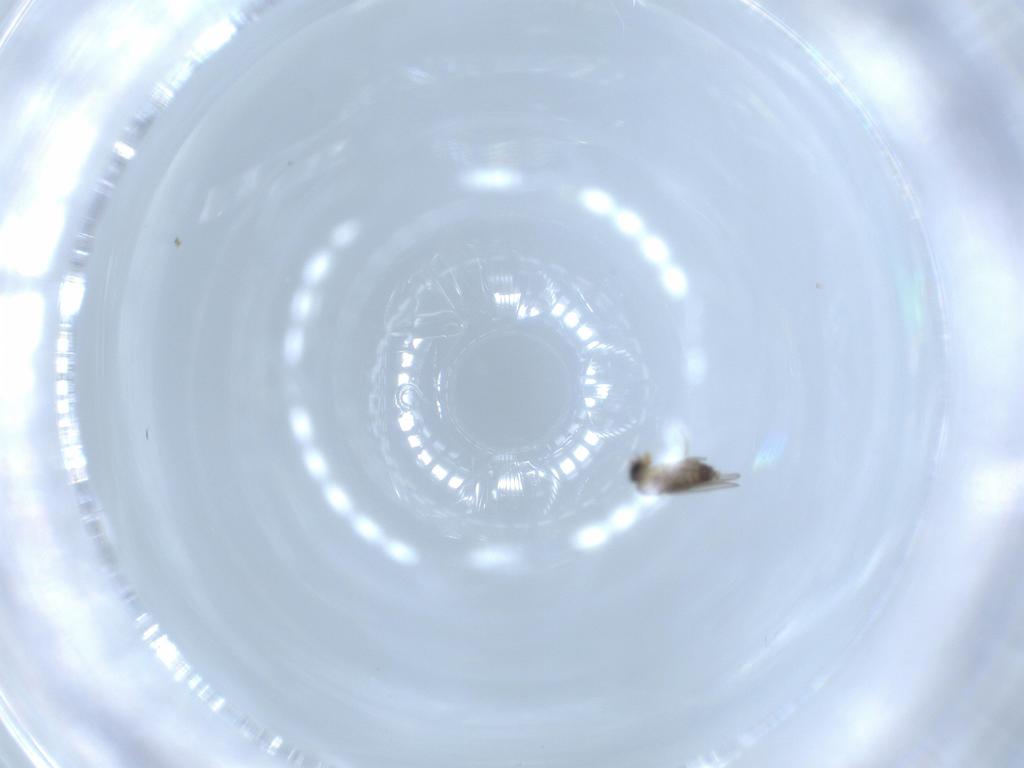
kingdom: Animalia
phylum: Arthropoda
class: Insecta
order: Diptera
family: Phoridae
